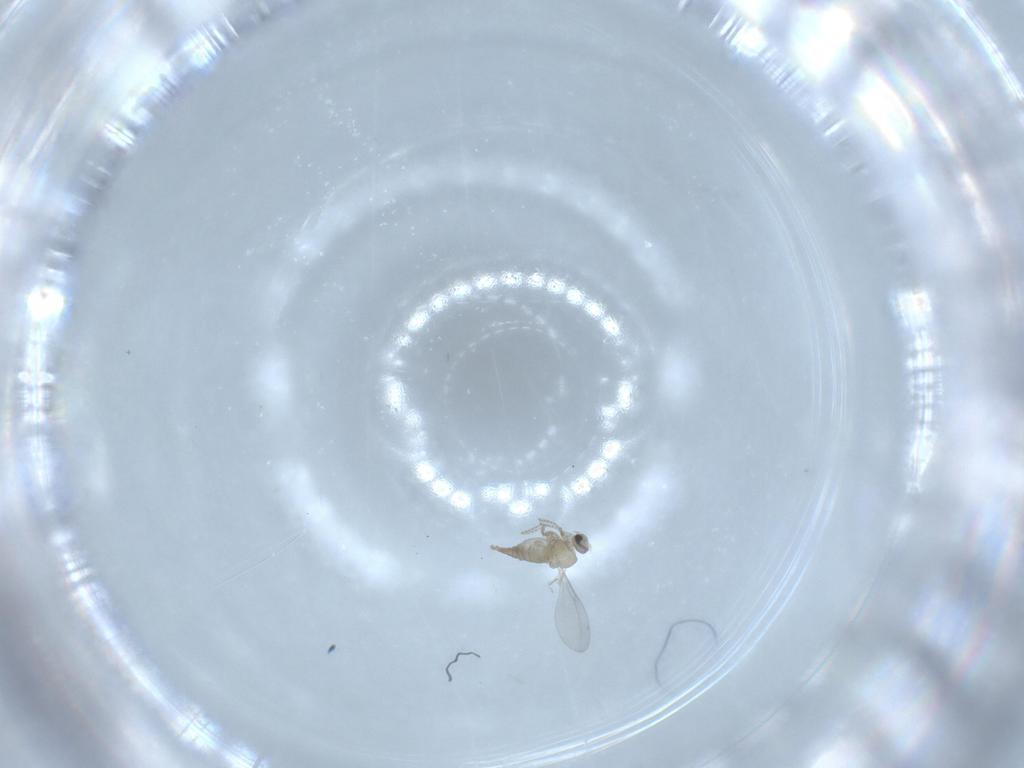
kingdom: Animalia
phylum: Arthropoda
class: Insecta
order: Diptera
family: Cecidomyiidae
